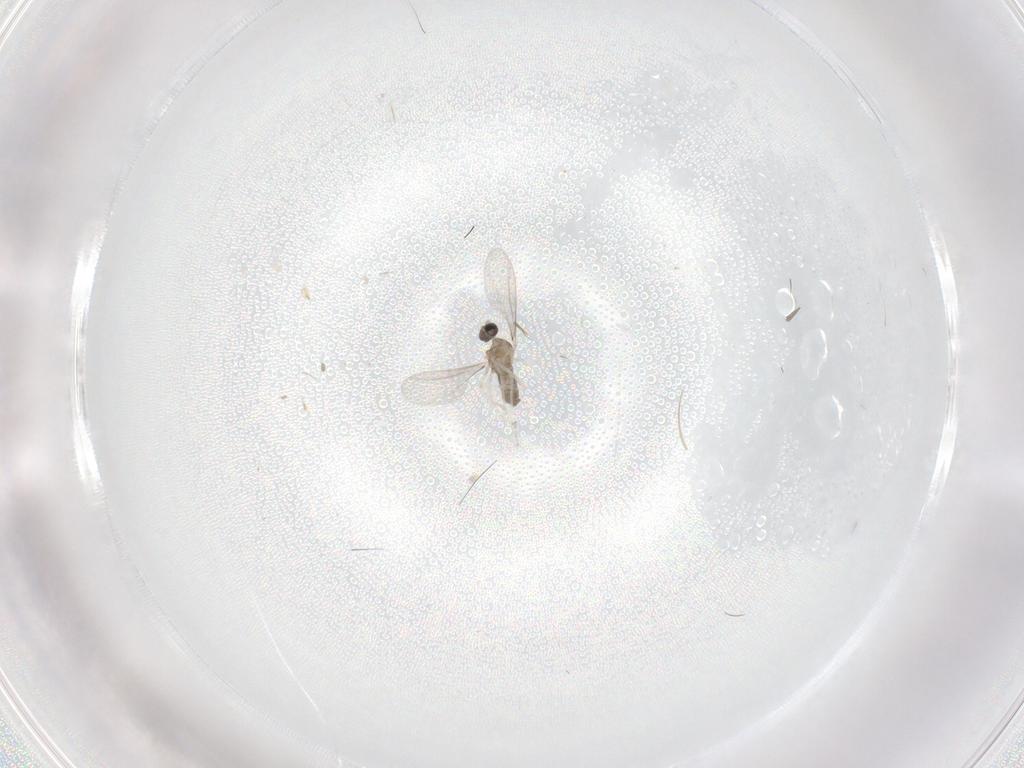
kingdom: Animalia
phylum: Arthropoda
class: Insecta
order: Diptera
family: Cecidomyiidae
